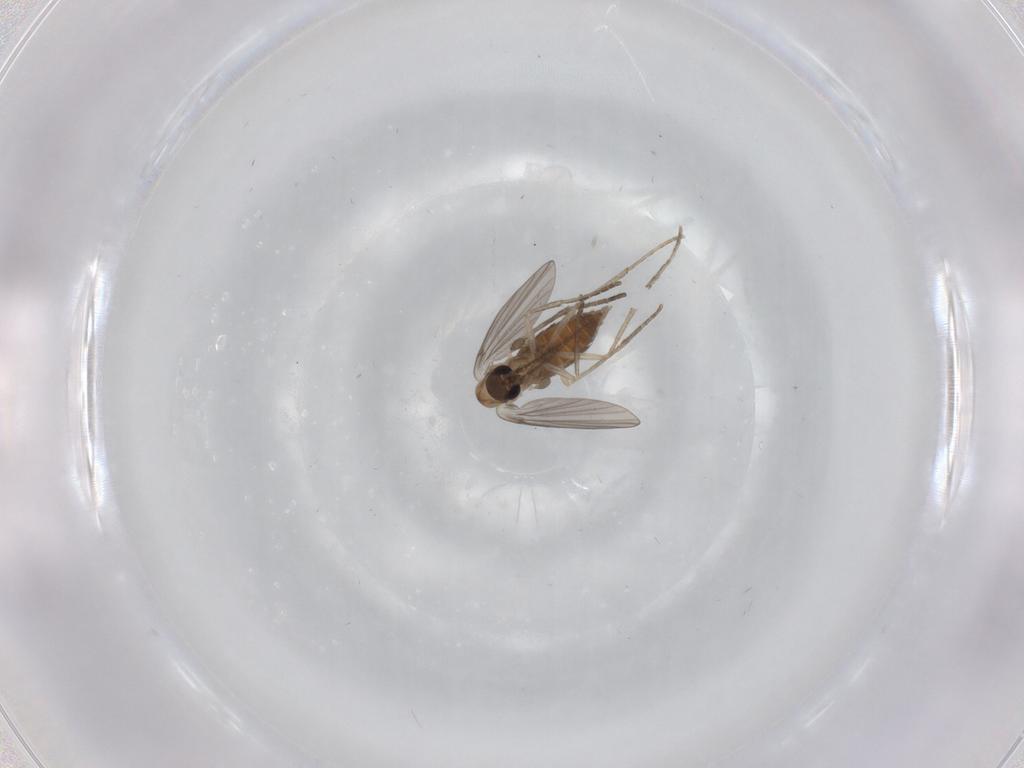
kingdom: Animalia
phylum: Arthropoda
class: Insecta
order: Diptera
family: Psychodidae
